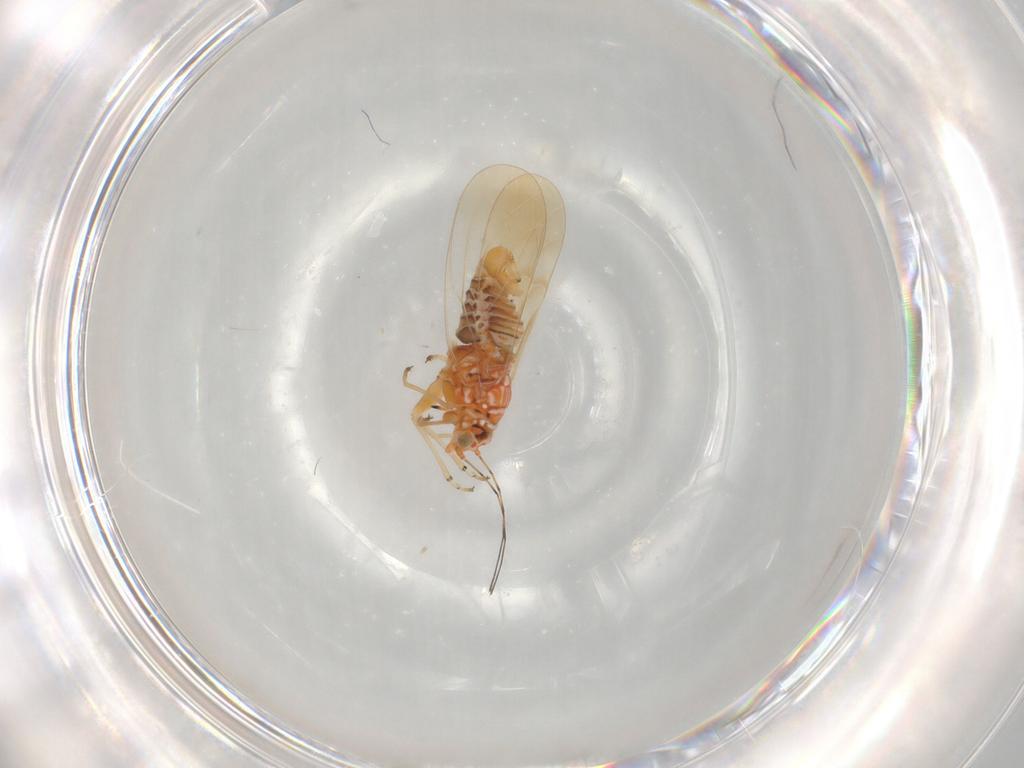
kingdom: Animalia
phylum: Arthropoda
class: Insecta
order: Hemiptera
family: Psyllidae
